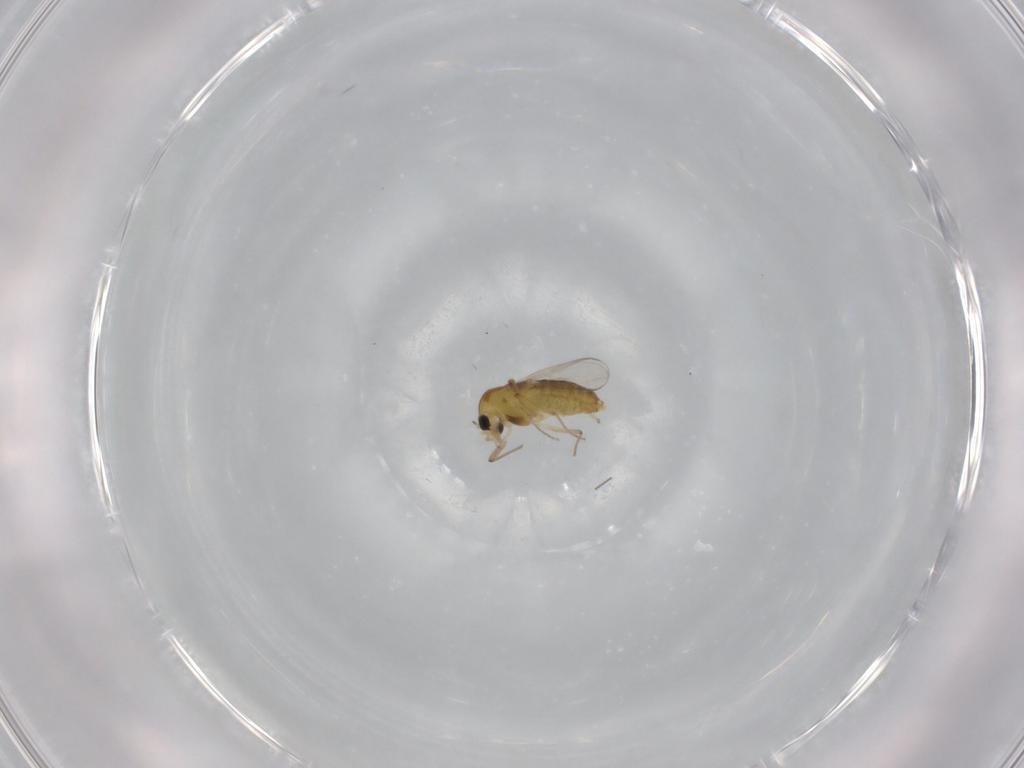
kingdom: Animalia
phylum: Arthropoda
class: Insecta
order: Diptera
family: Chironomidae
